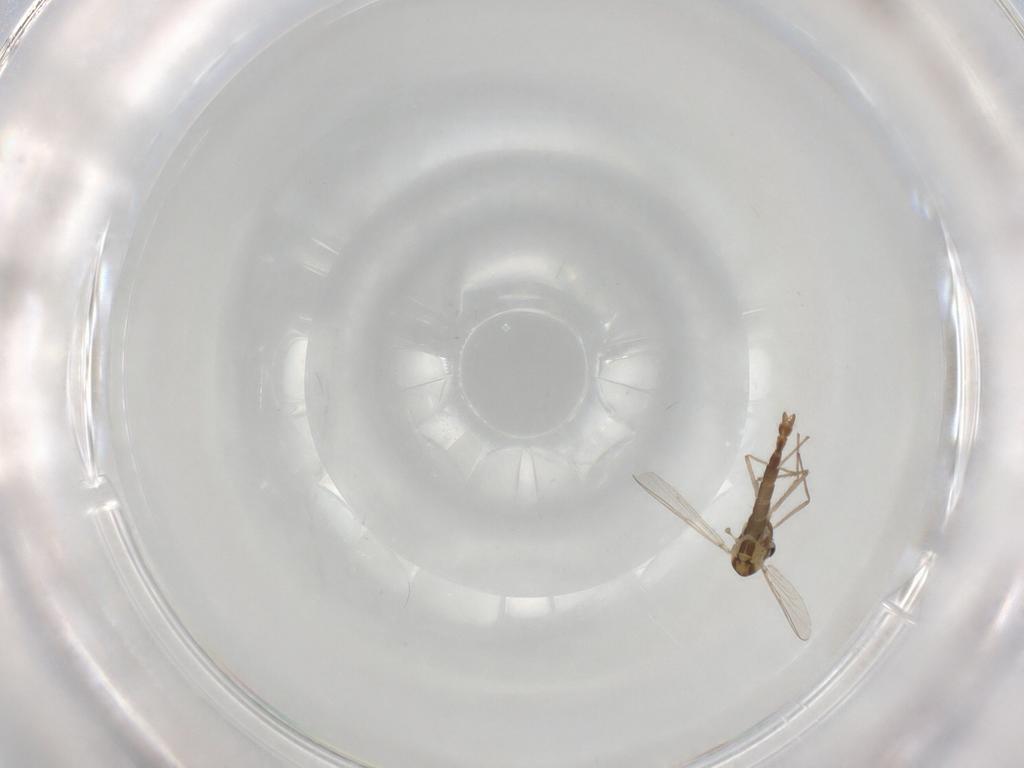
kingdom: Animalia
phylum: Arthropoda
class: Insecta
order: Diptera
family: Chironomidae
